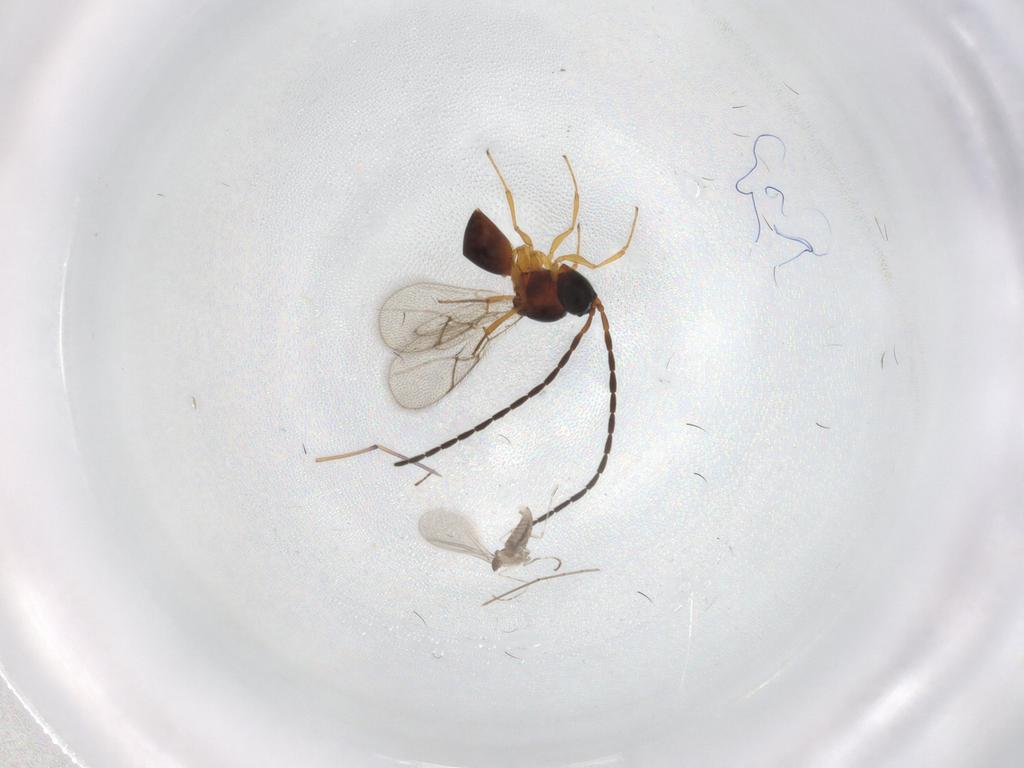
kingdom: Animalia
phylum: Arthropoda
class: Insecta
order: Diptera
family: Cecidomyiidae
